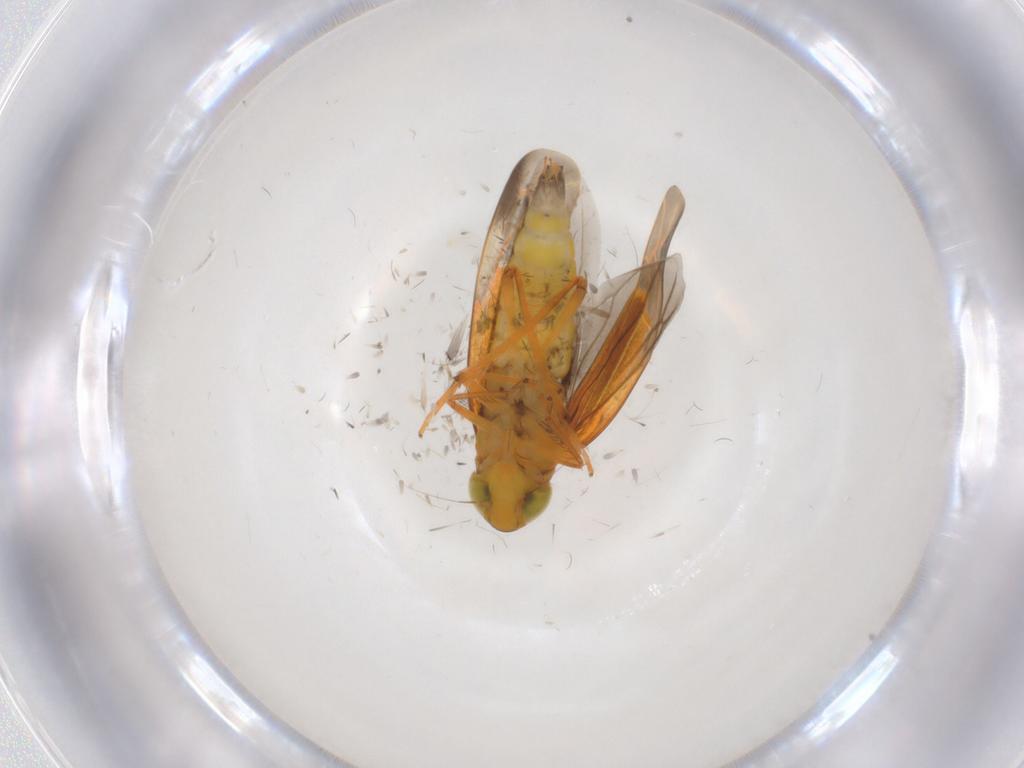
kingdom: Animalia
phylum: Arthropoda
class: Insecta
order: Hemiptera
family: Cicadellidae
